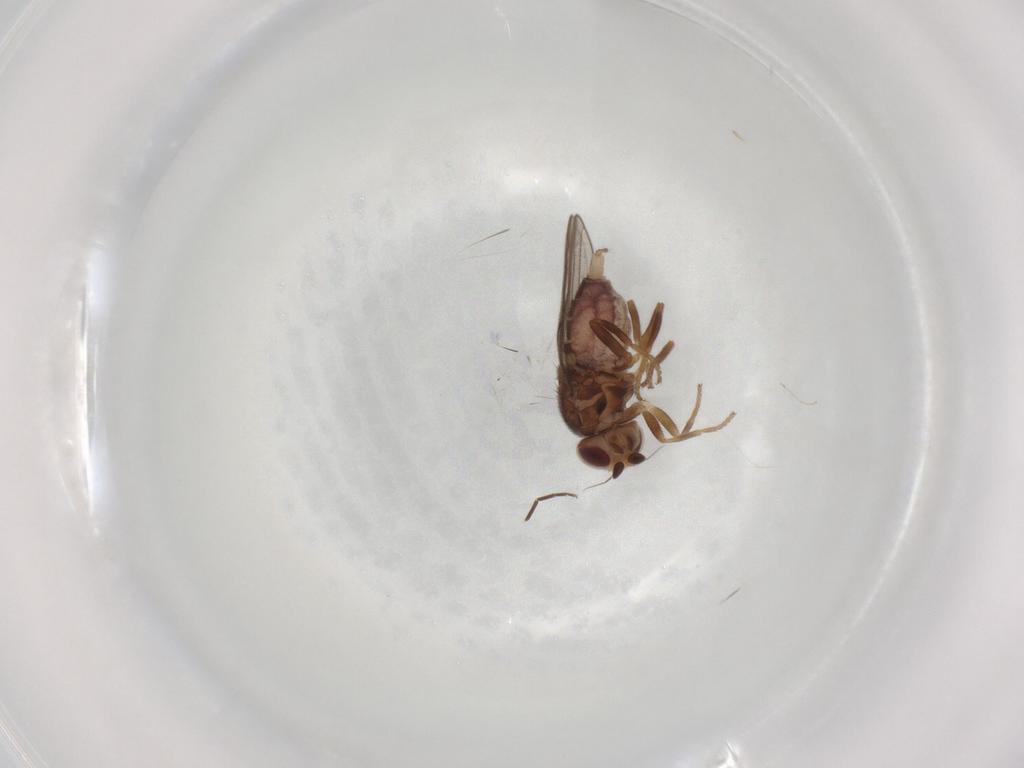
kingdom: Animalia
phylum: Arthropoda
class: Insecta
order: Diptera
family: Chloropidae
